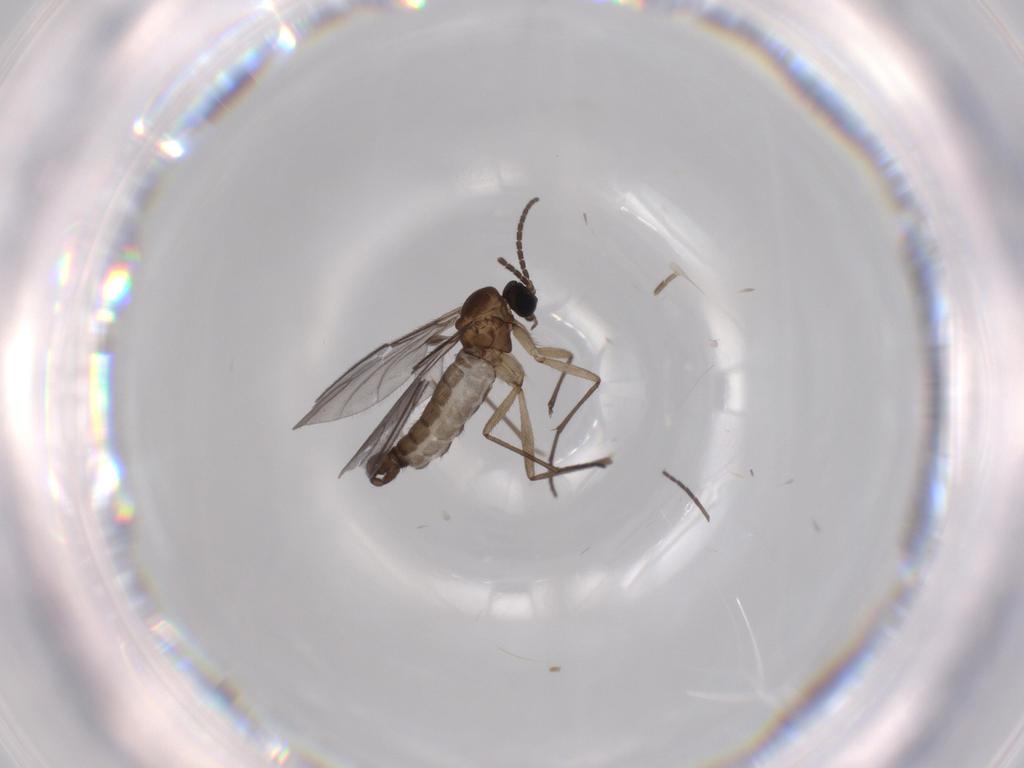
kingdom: Animalia
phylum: Arthropoda
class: Insecta
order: Diptera
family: Sciaridae
